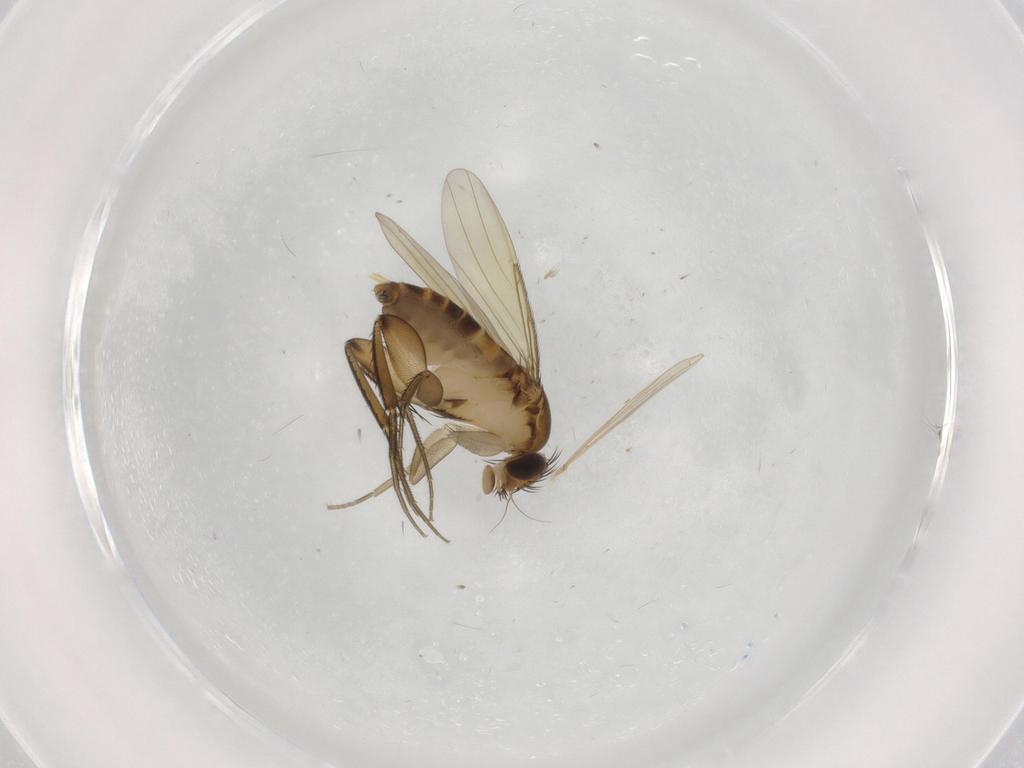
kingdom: Animalia
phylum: Arthropoda
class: Insecta
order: Diptera
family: Phoridae
